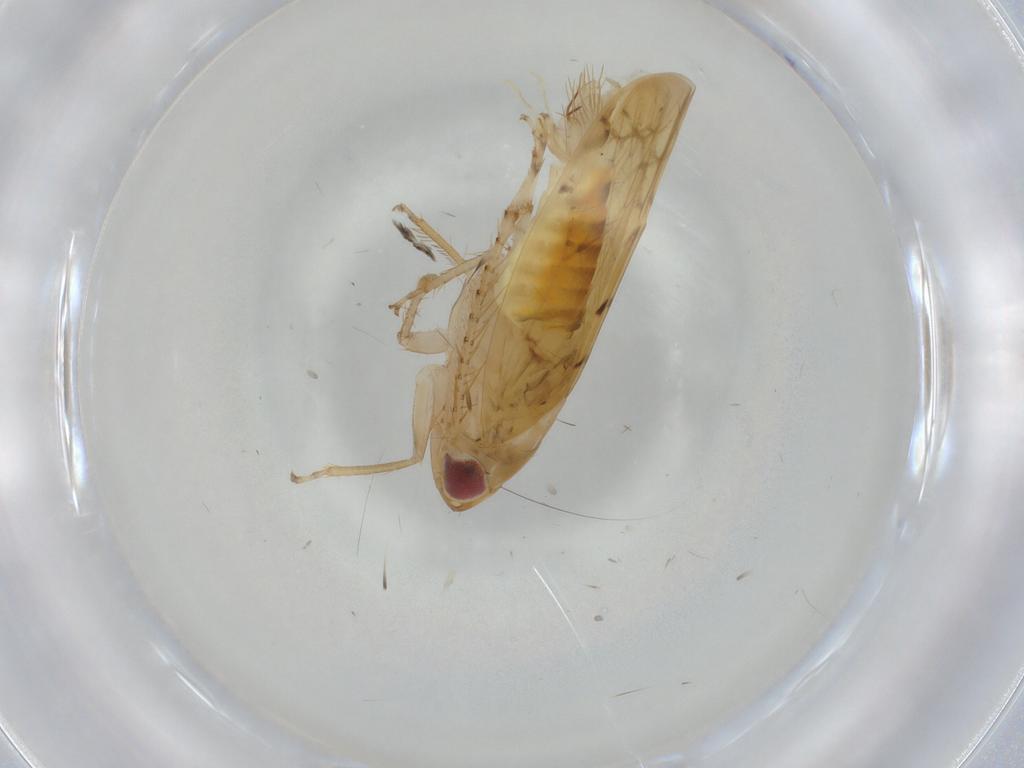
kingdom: Animalia
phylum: Arthropoda
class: Insecta
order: Hemiptera
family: Cicadellidae
